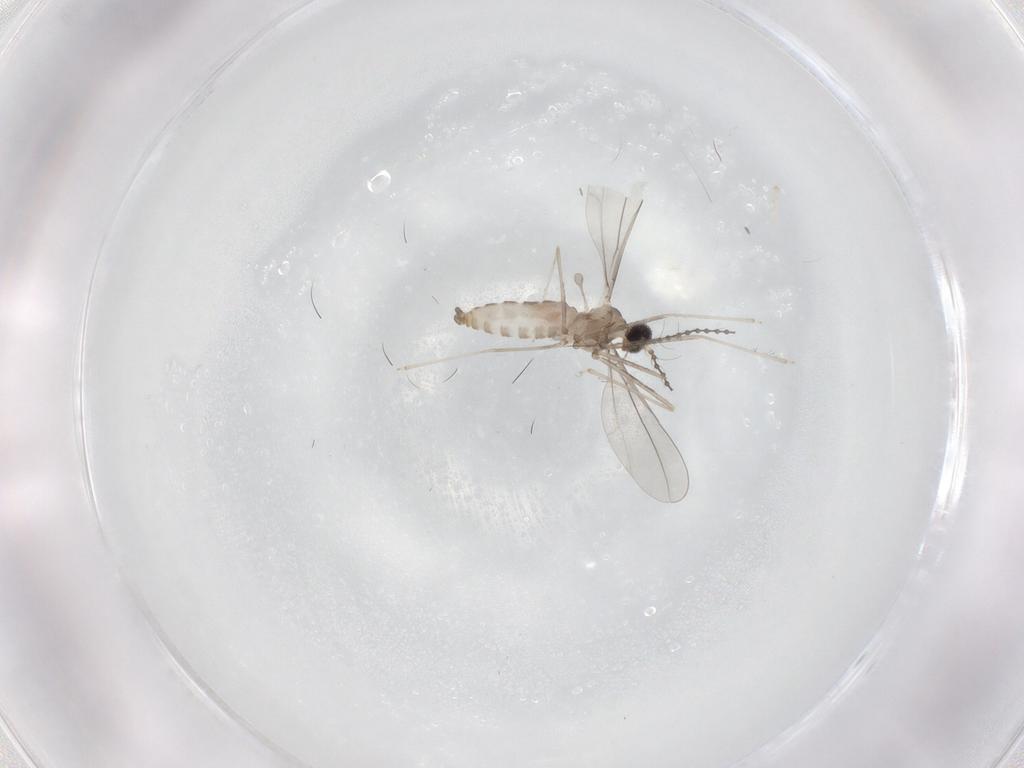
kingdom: Animalia
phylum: Arthropoda
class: Insecta
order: Diptera
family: Cecidomyiidae
